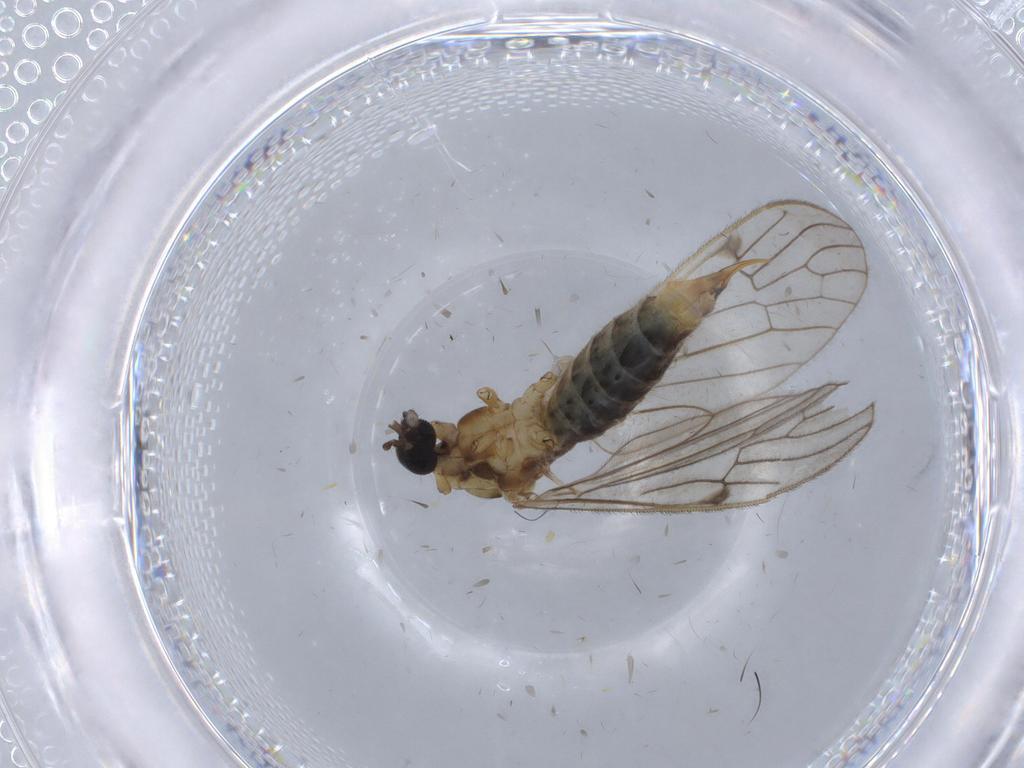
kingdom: Animalia
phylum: Arthropoda
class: Insecta
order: Diptera
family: Limoniidae
